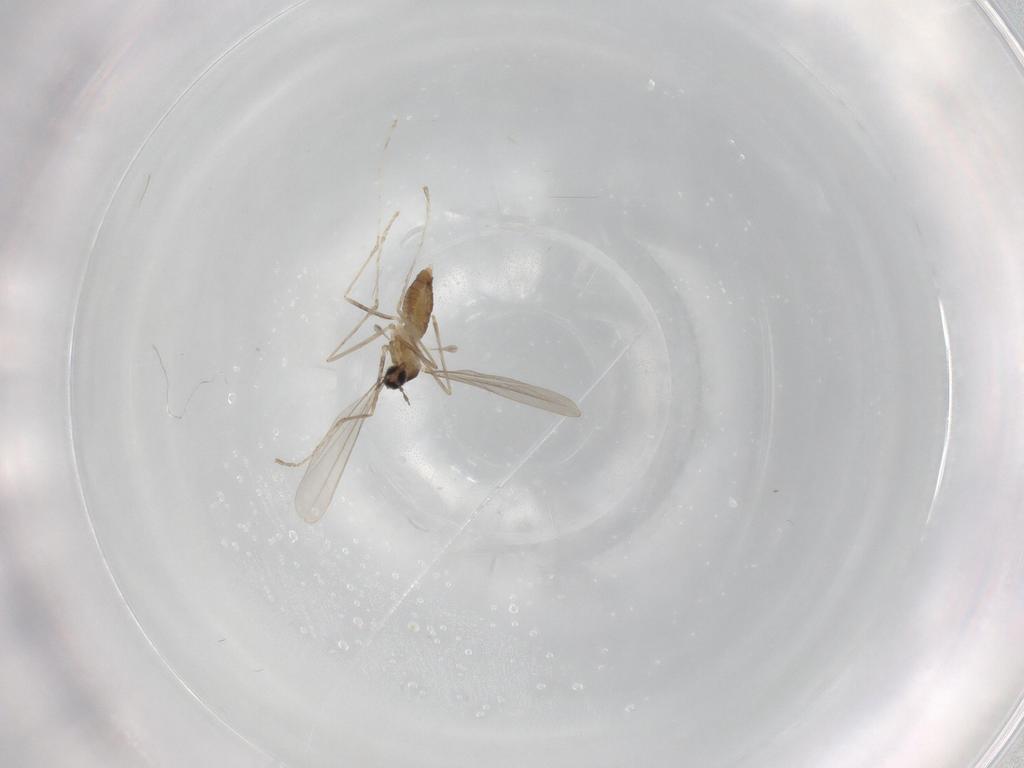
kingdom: Animalia
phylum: Arthropoda
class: Insecta
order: Diptera
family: Cecidomyiidae
